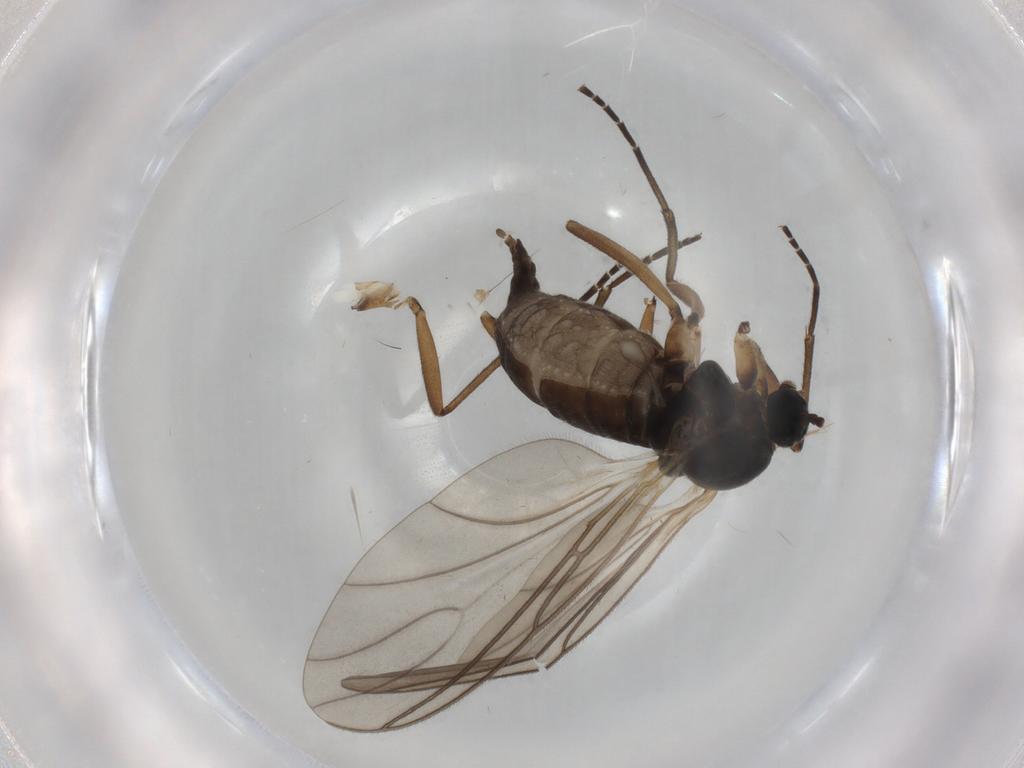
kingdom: Animalia
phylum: Arthropoda
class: Insecta
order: Diptera
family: Sciaridae
